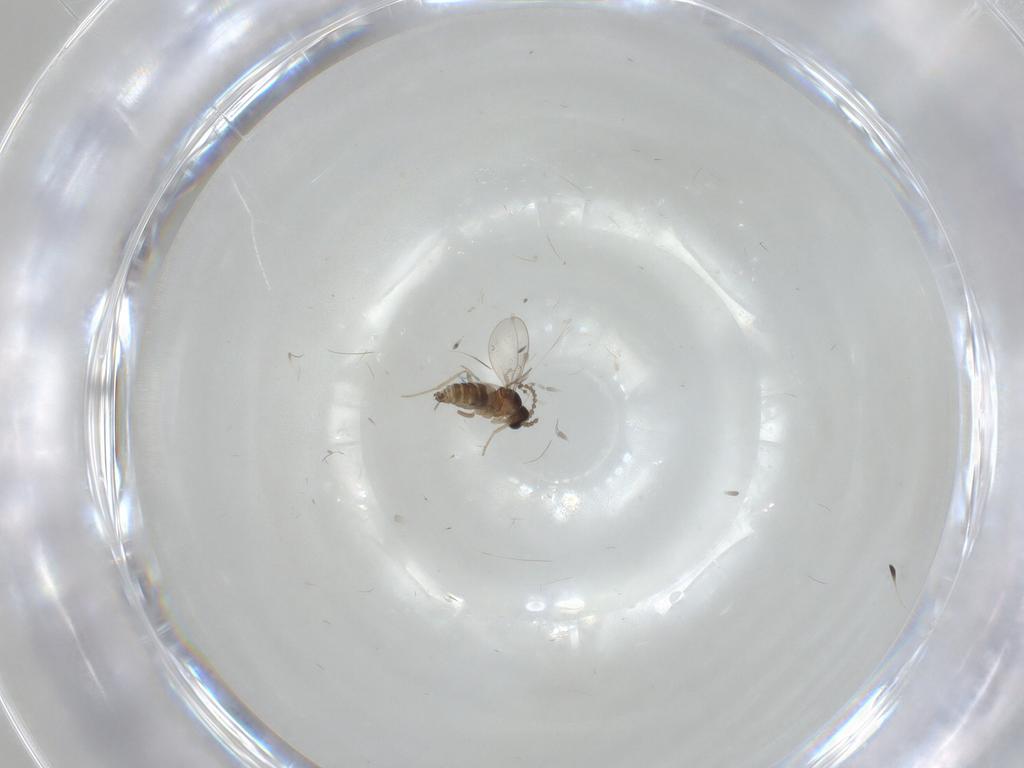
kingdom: Animalia
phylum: Arthropoda
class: Insecta
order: Diptera
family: Cecidomyiidae
